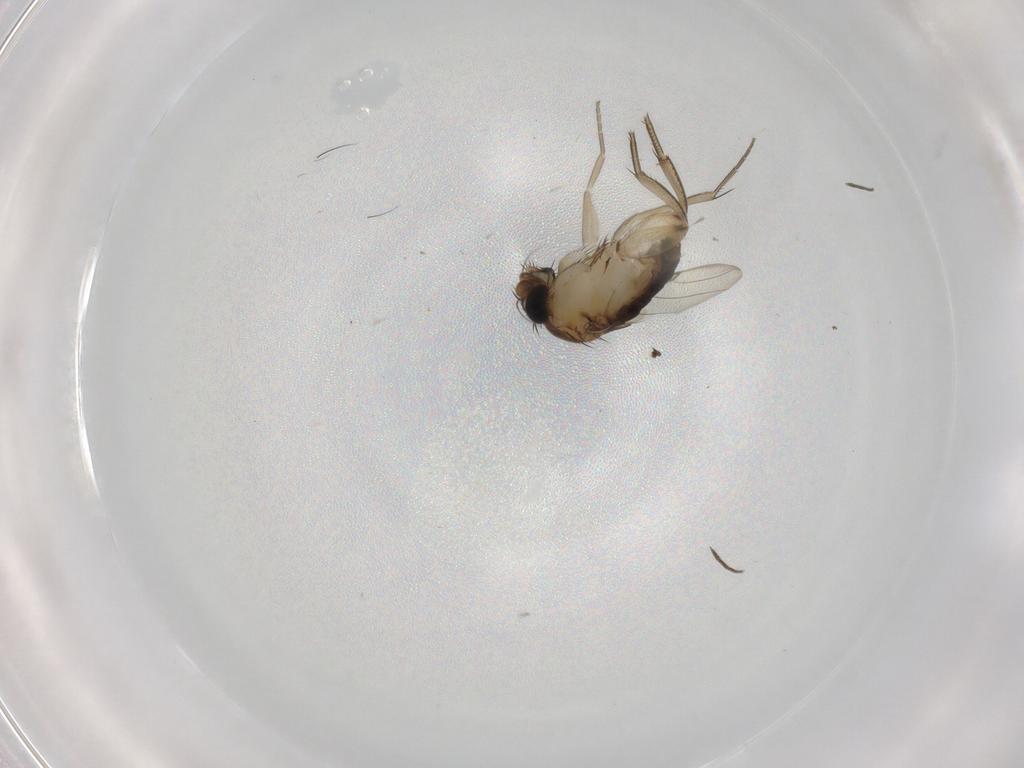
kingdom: Animalia
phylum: Arthropoda
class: Insecta
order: Diptera
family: Phoridae
